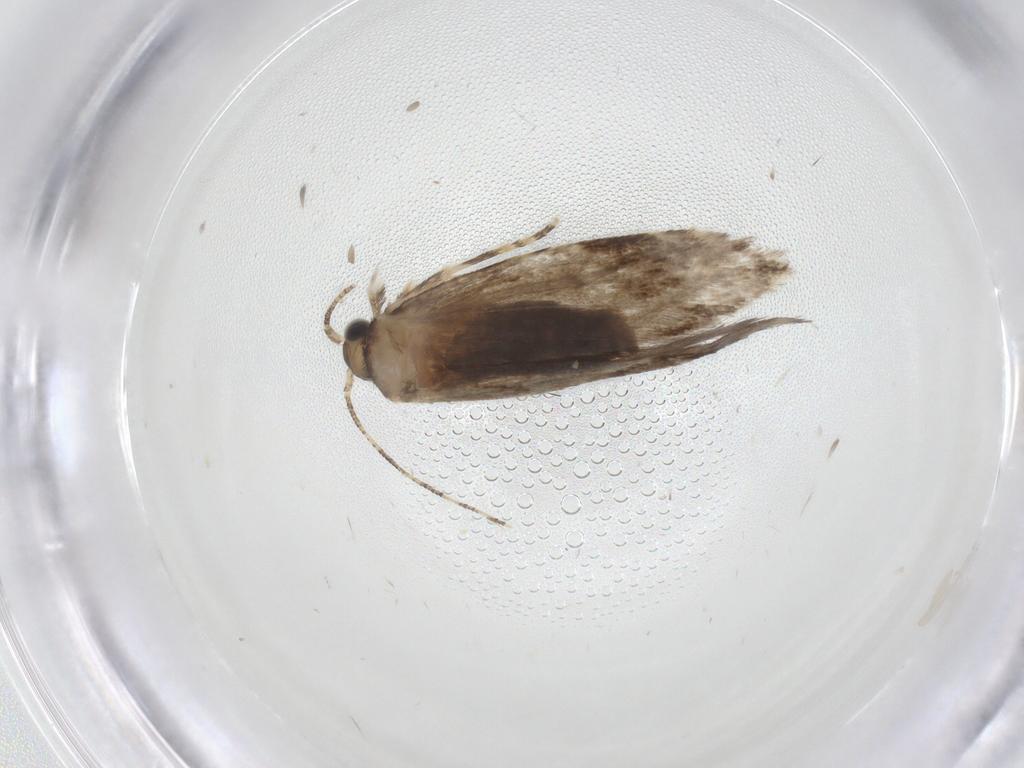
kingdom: Animalia
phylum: Arthropoda
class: Insecta
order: Lepidoptera
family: Tineidae
